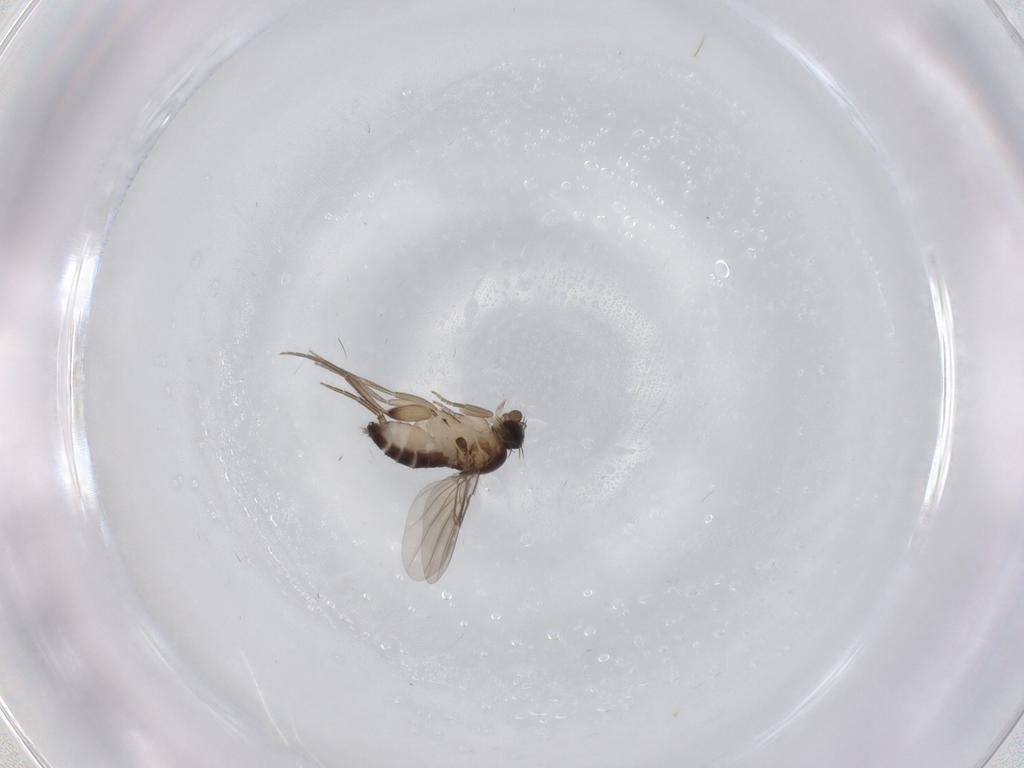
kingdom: Animalia
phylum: Arthropoda
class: Insecta
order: Diptera
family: Phoridae
